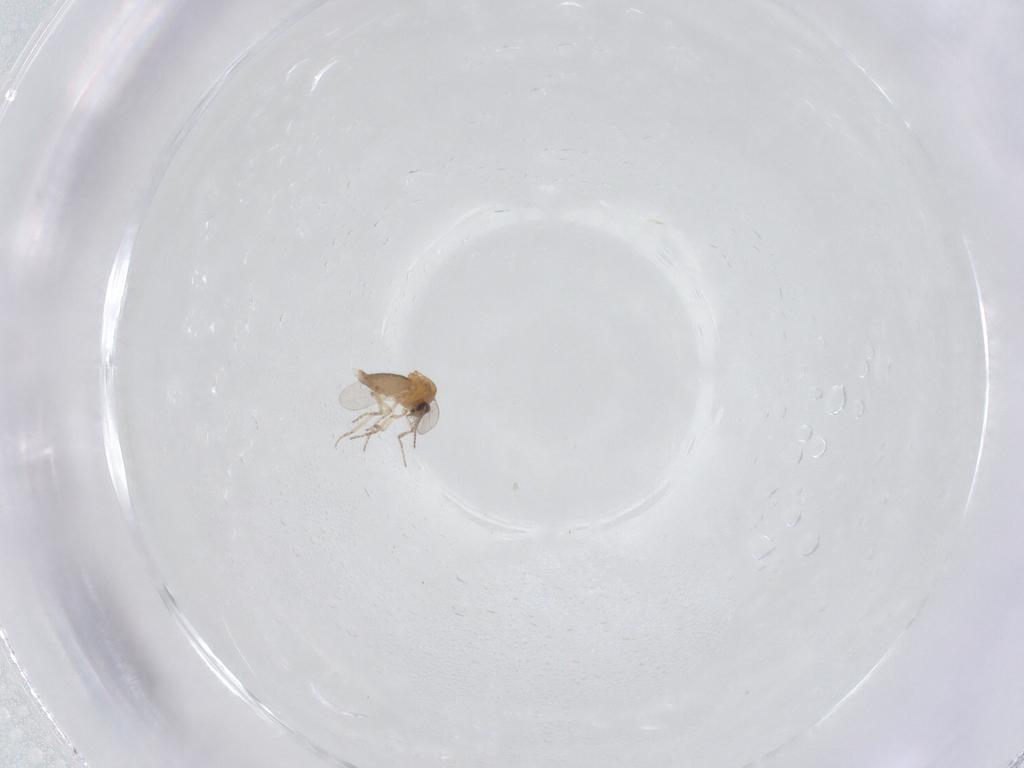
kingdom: Animalia
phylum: Arthropoda
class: Insecta
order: Diptera
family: Ceratopogonidae
